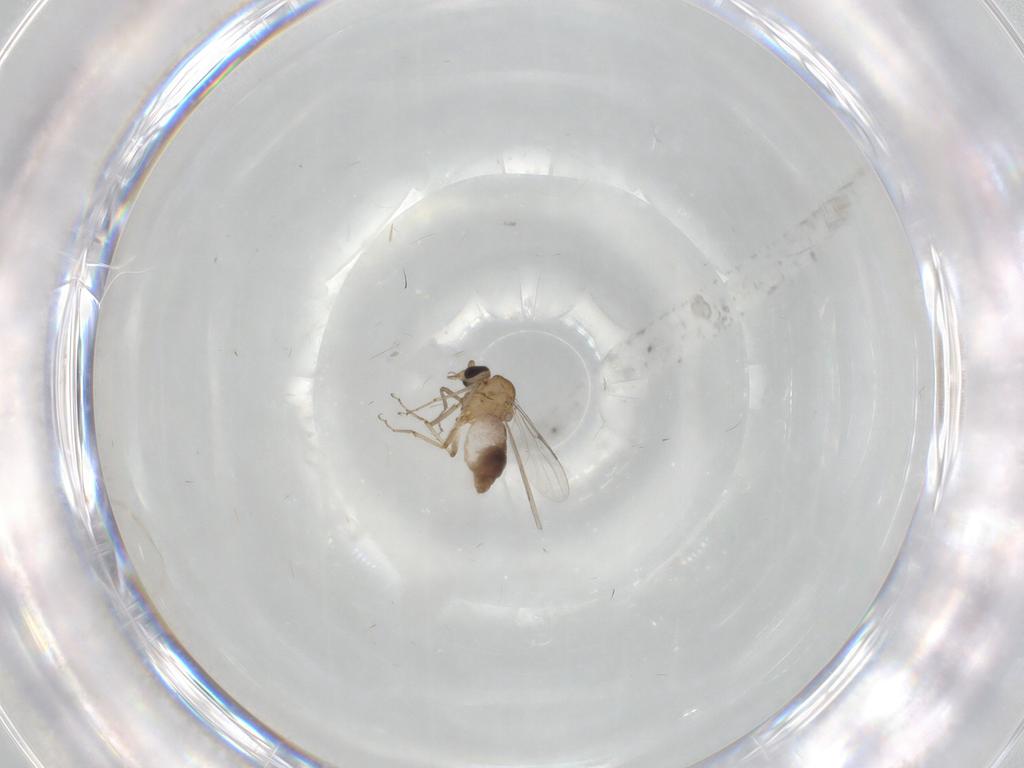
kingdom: Animalia
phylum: Arthropoda
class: Insecta
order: Diptera
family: Chironomidae
